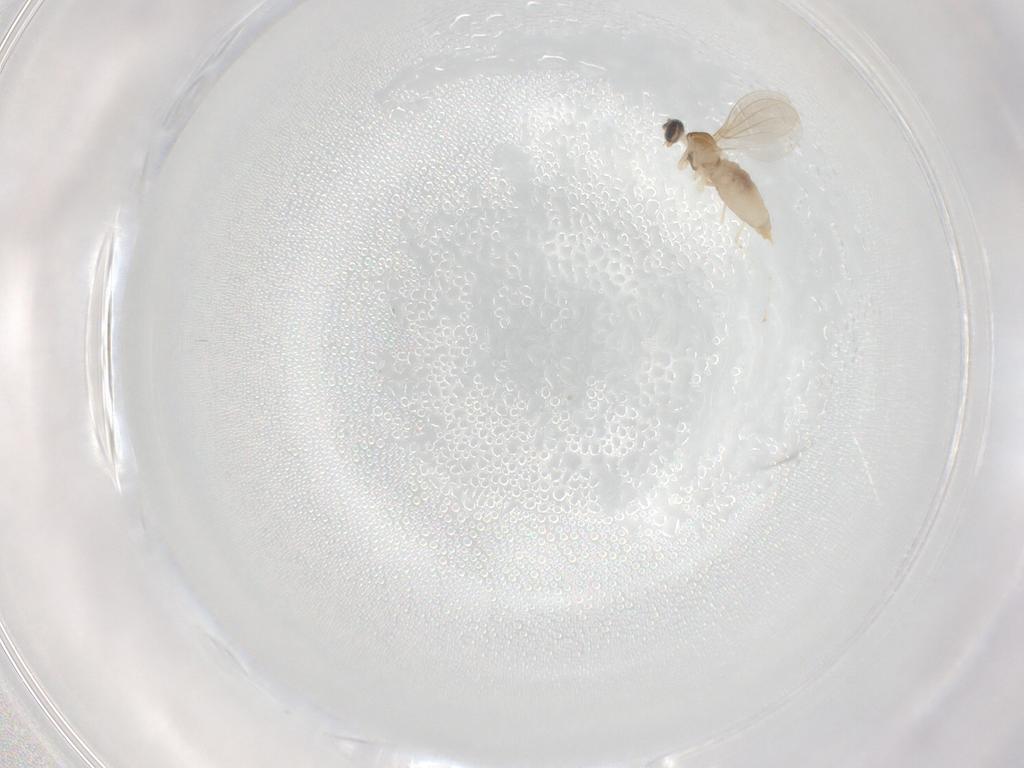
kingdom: Animalia
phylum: Arthropoda
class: Insecta
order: Diptera
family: Cecidomyiidae
